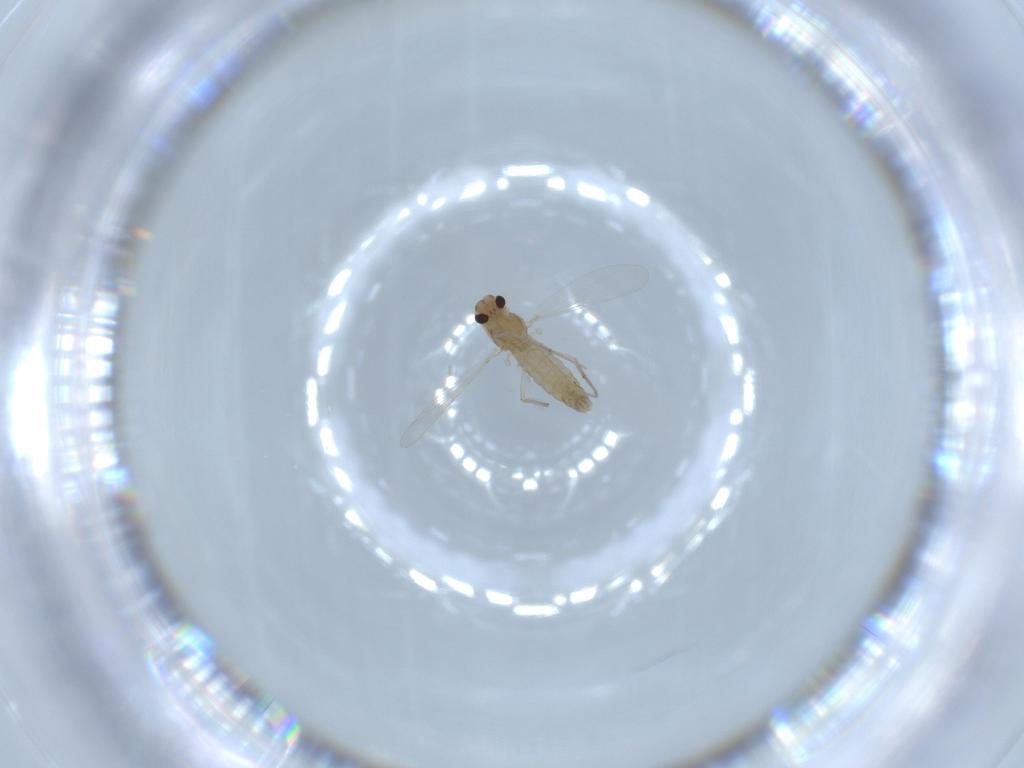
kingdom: Animalia
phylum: Arthropoda
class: Insecta
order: Diptera
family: Chironomidae
